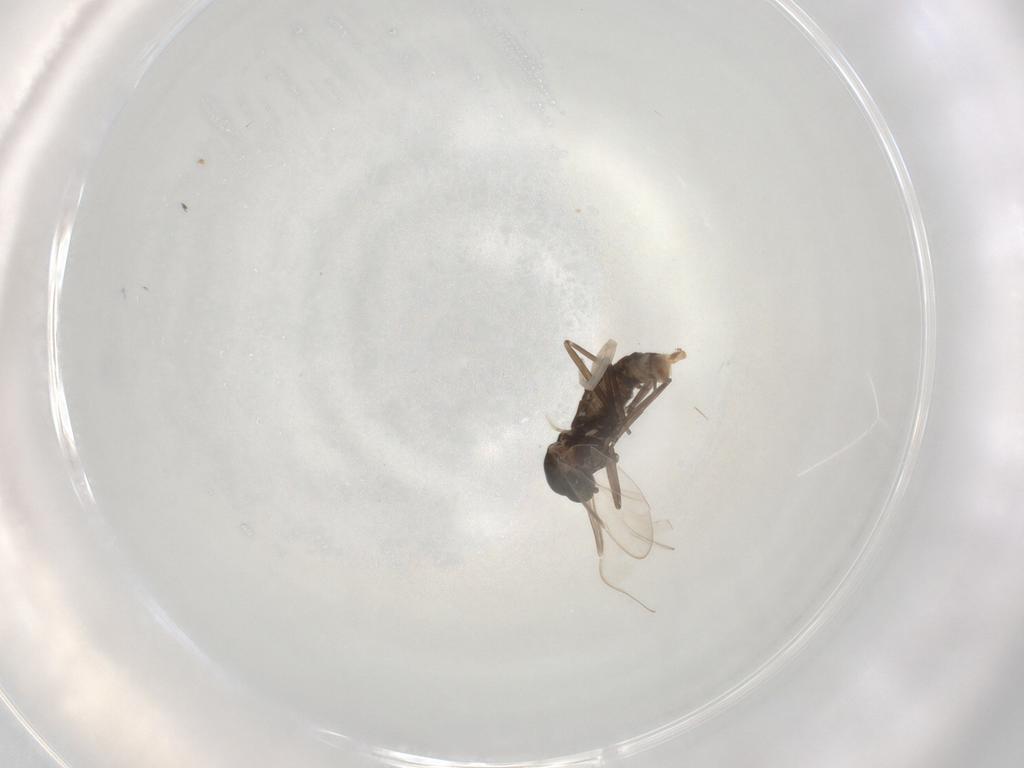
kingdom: Animalia
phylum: Arthropoda
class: Insecta
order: Diptera
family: Cecidomyiidae
